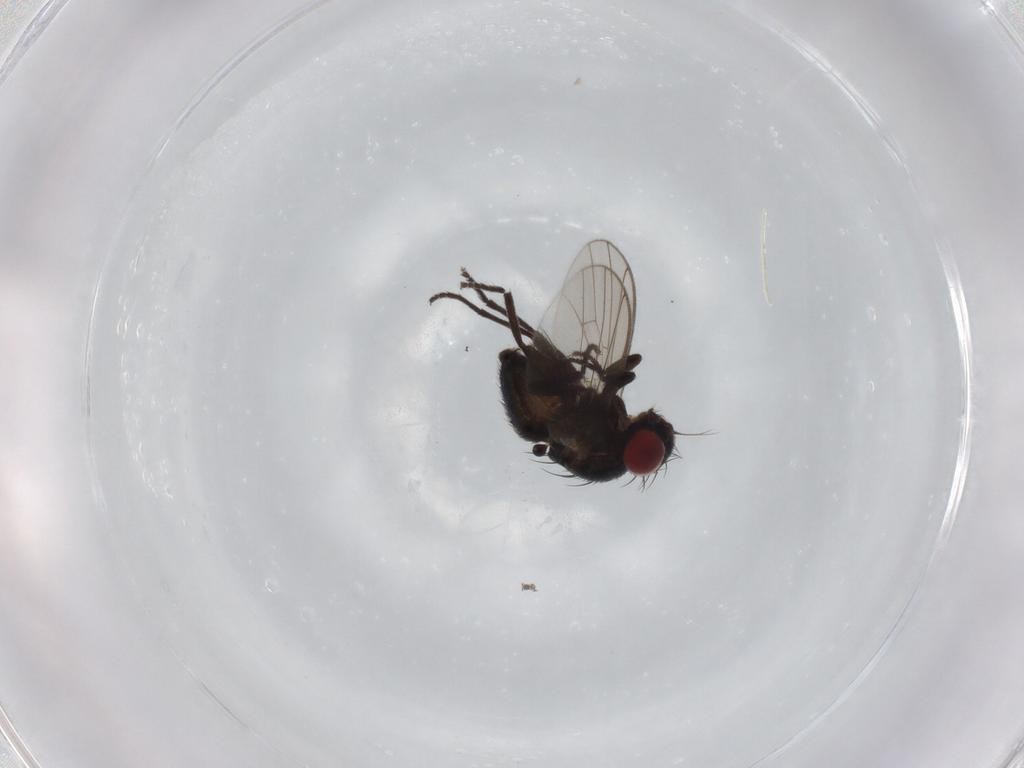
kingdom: Animalia
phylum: Arthropoda
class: Insecta
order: Diptera
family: Agromyzidae
